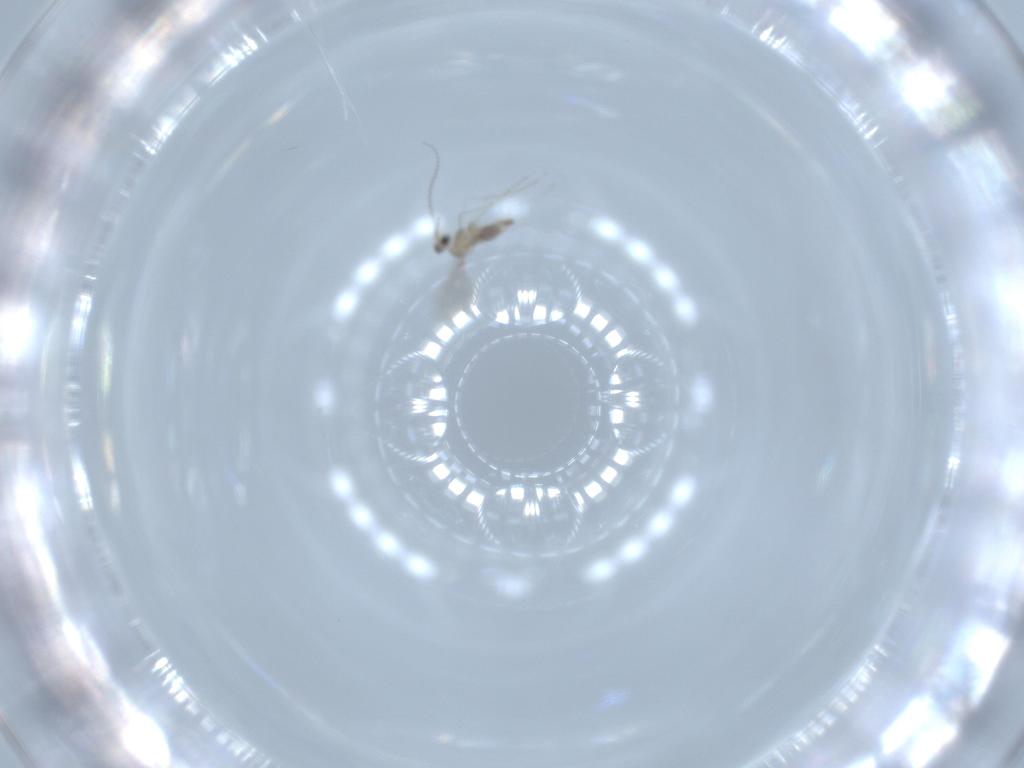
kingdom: Animalia
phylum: Arthropoda
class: Insecta
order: Diptera
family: Cecidomyiidae
